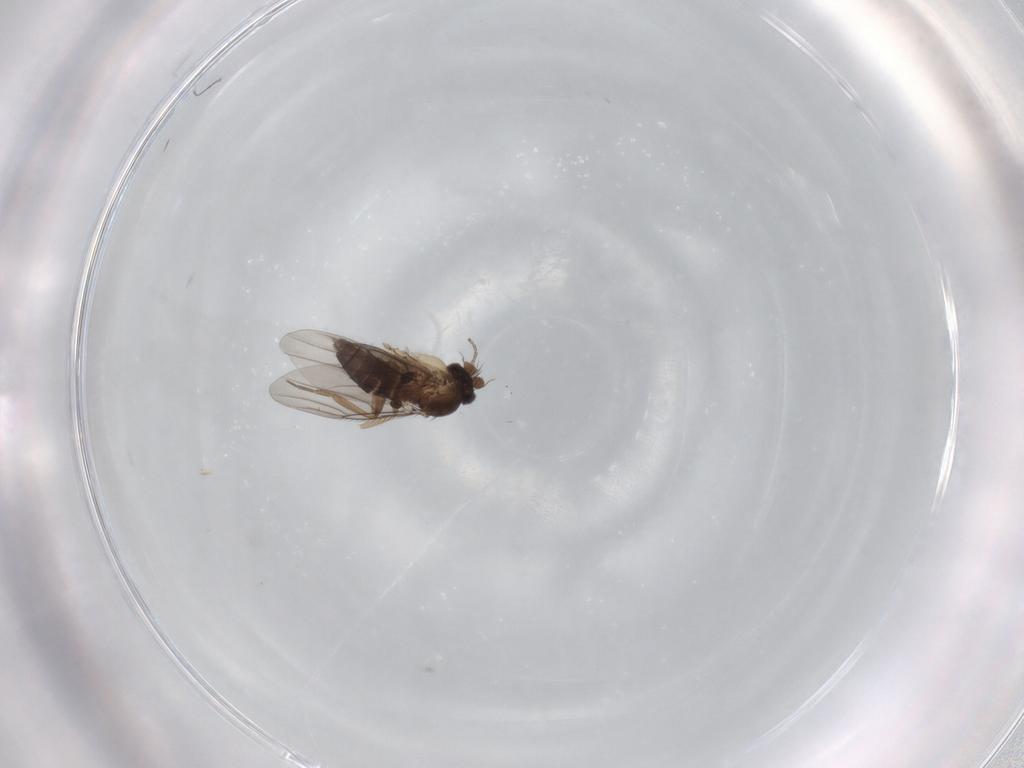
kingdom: Animalia
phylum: Arthropoda
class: Insecta
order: Diptera
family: Phoridae
